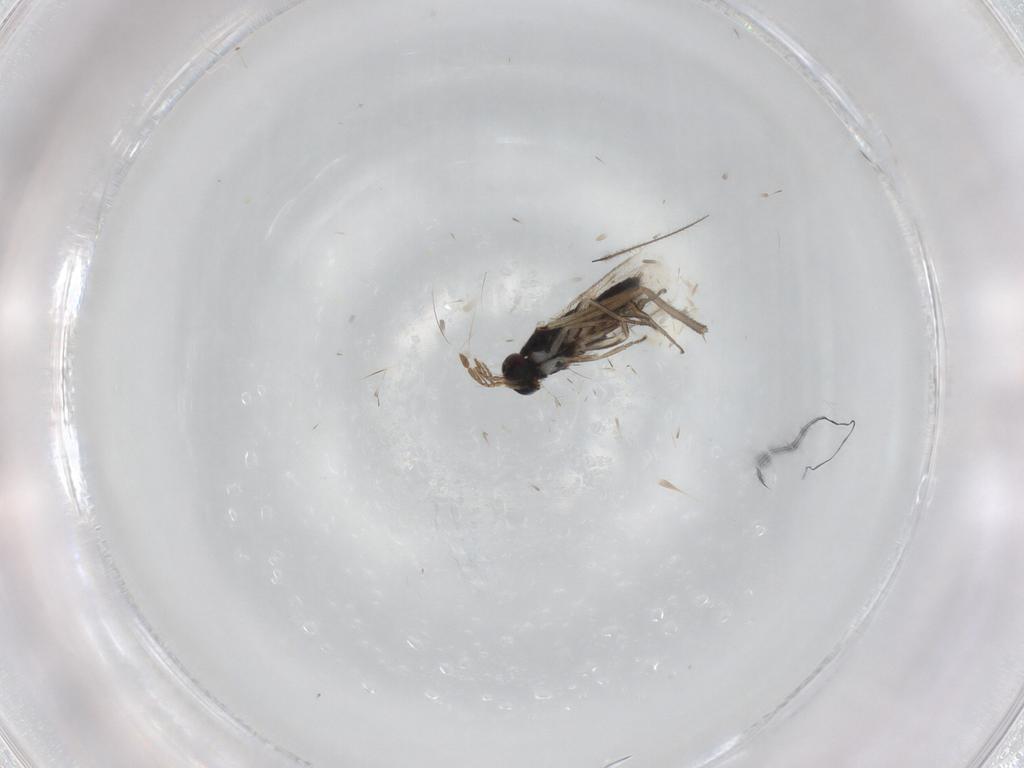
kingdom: Animalia
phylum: Arthropoda
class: Insecta
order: Hymenoptera
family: Eulophidae
